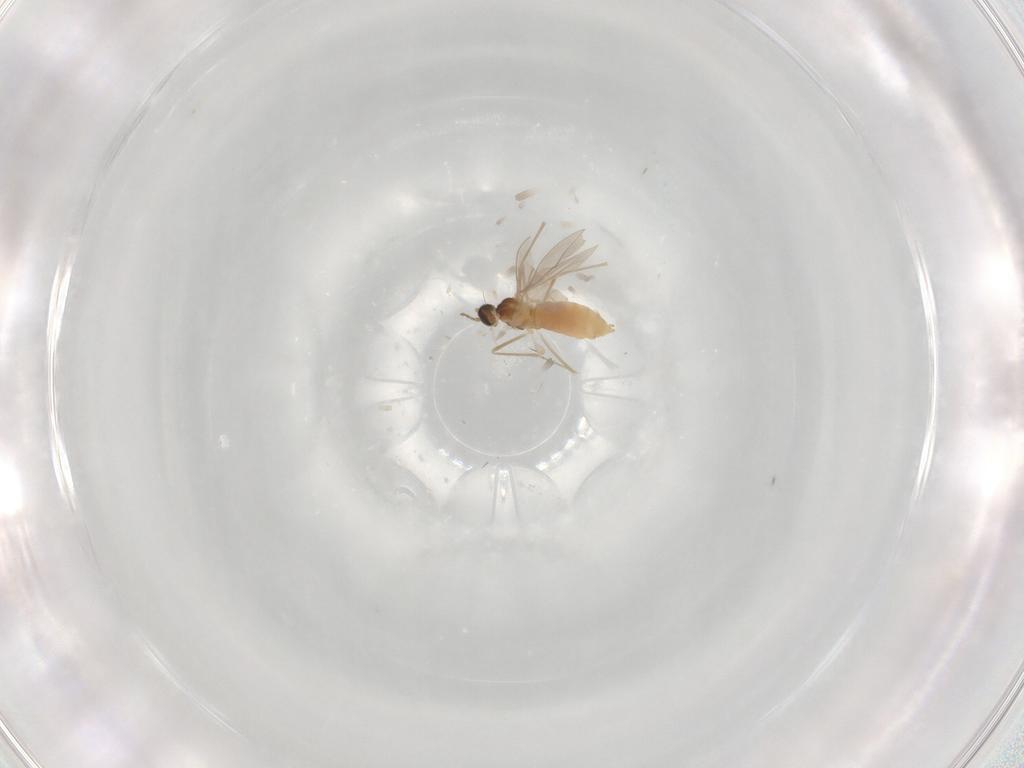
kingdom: Animalia
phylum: Arthropoda
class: Insecta
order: Diptera
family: Cecidomyiidae
